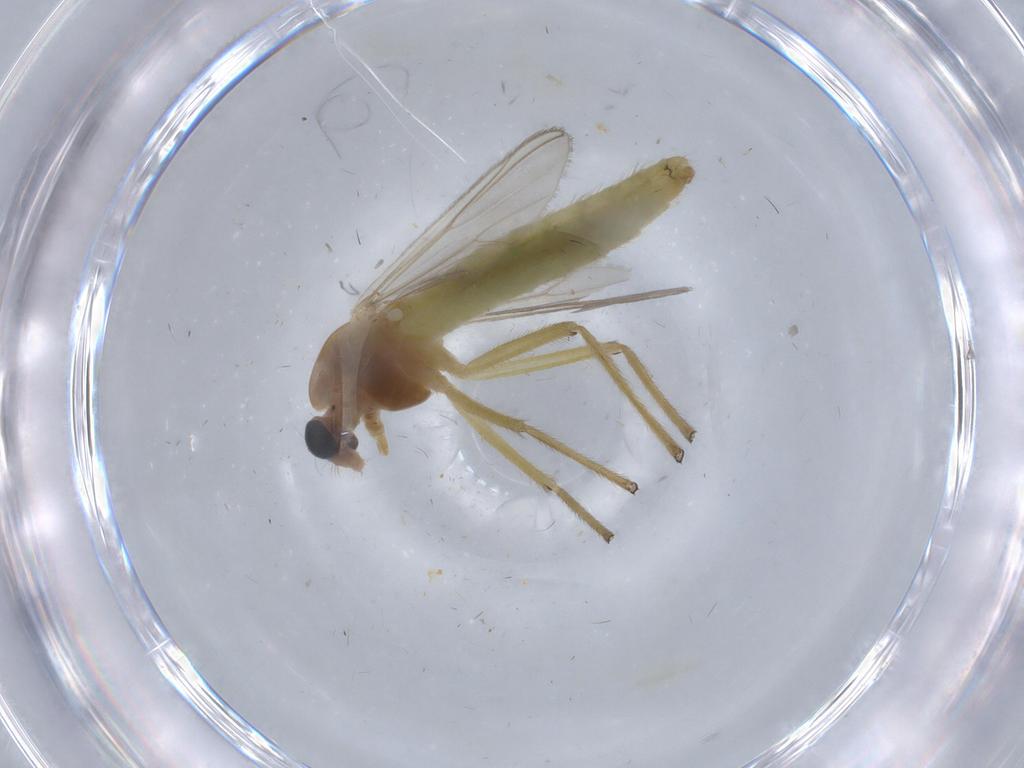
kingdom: Animalia
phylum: Arthropoda
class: Insecta
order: Diptera
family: Chironomidae
